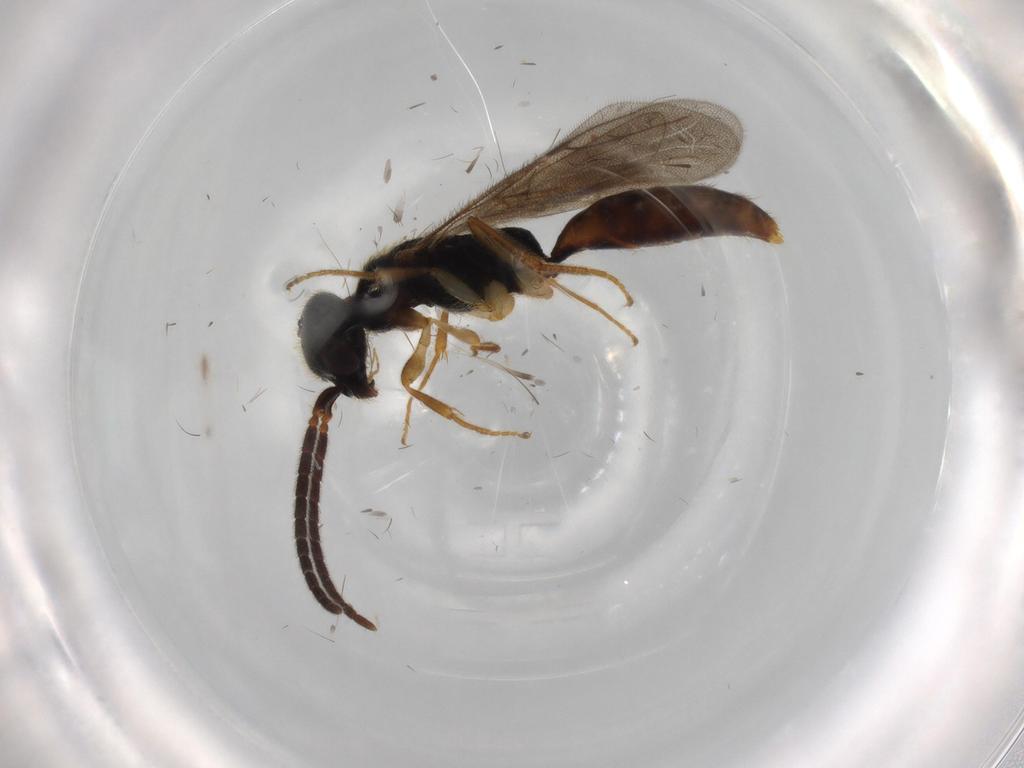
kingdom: Animalia
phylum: Arthropoda
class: Insecta
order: Hymenoptera
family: Bethylidae
